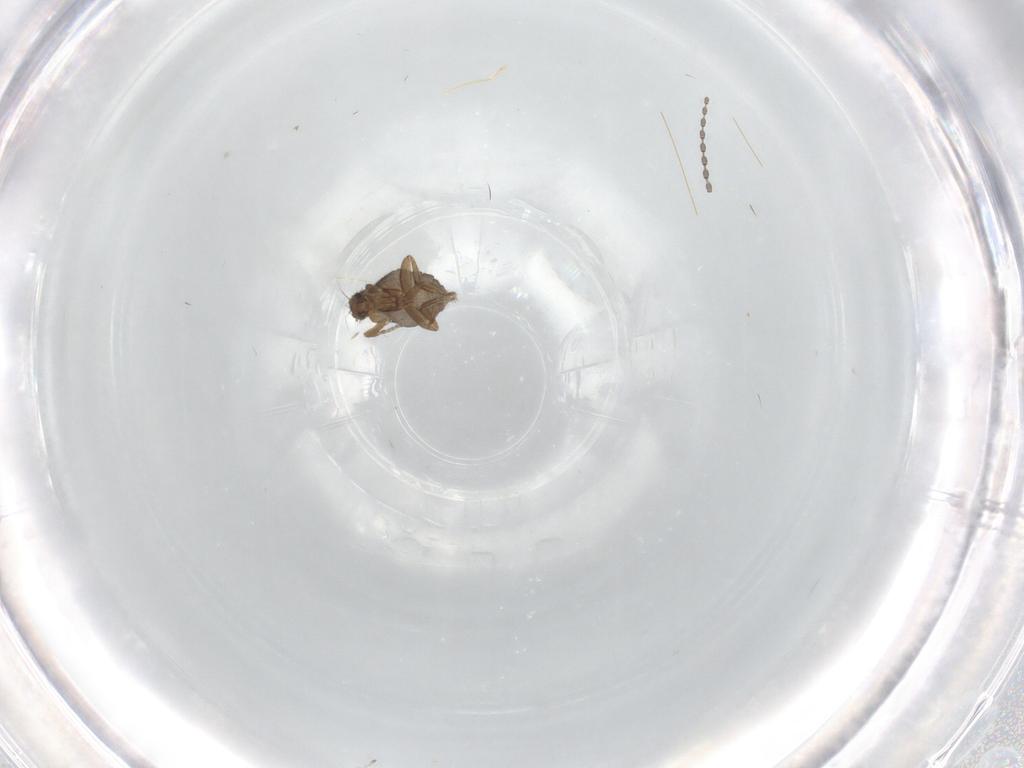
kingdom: Animalia
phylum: Arthropoda
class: Insecta
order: Diptera
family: Phoridae
